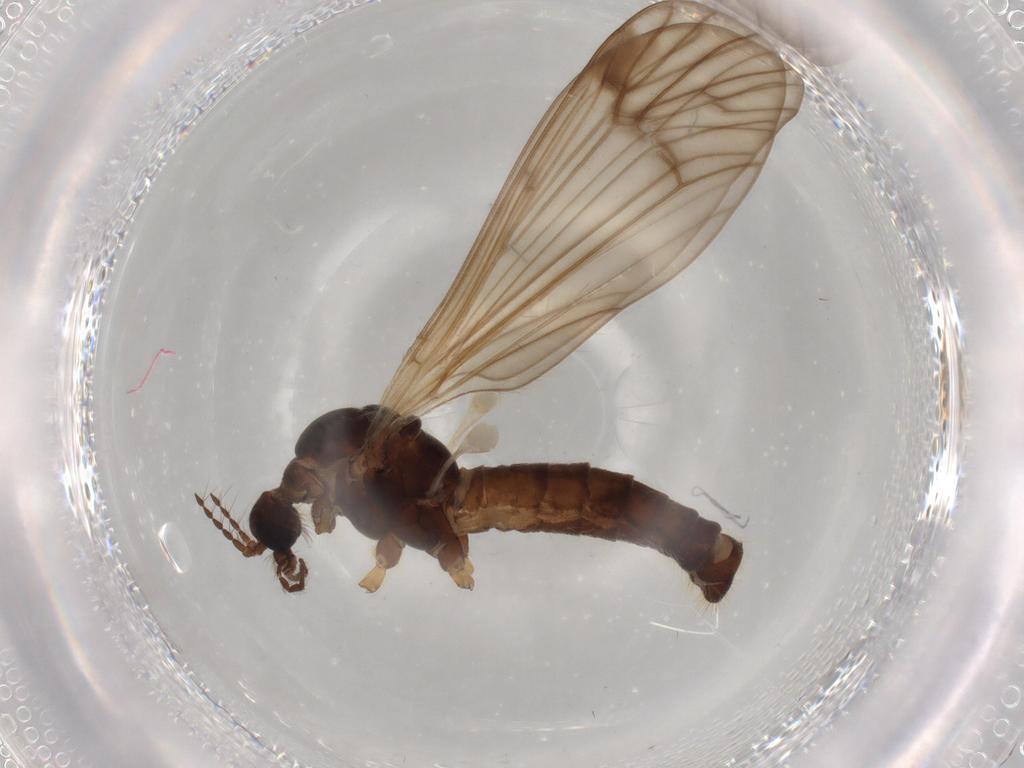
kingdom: Animalia
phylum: Arthropoda
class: Insecta
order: Diptera
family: Drosophilidae
